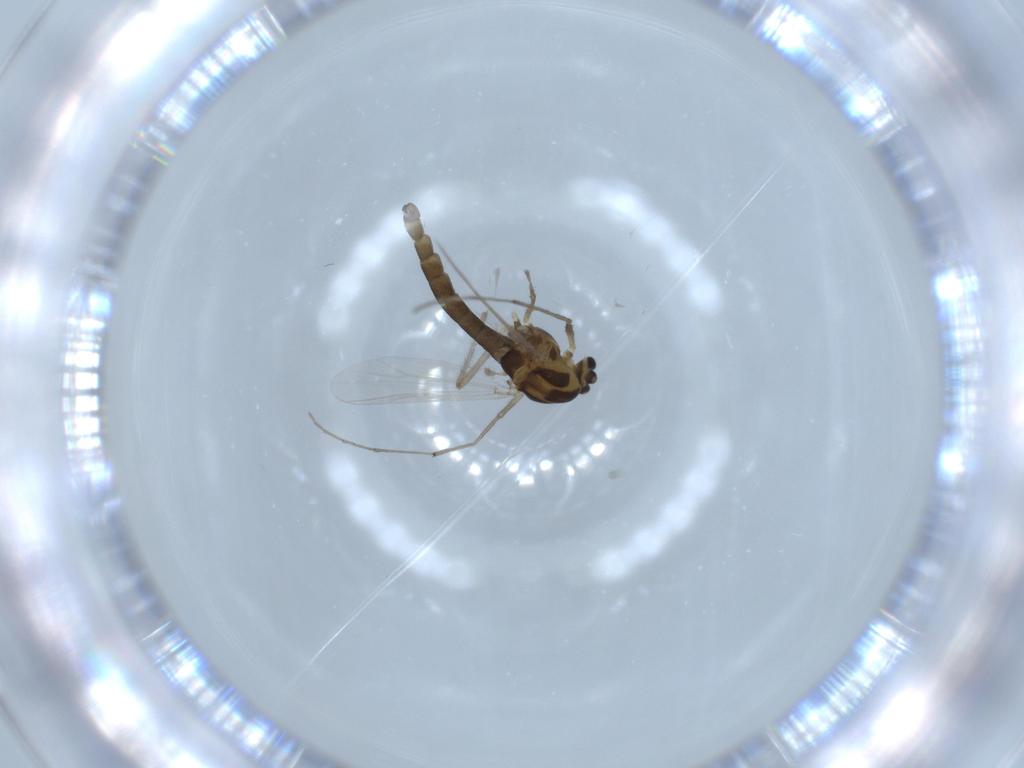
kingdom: Animalia
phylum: Arthropoda
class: Insecta
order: Diptera
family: Chironomidae
